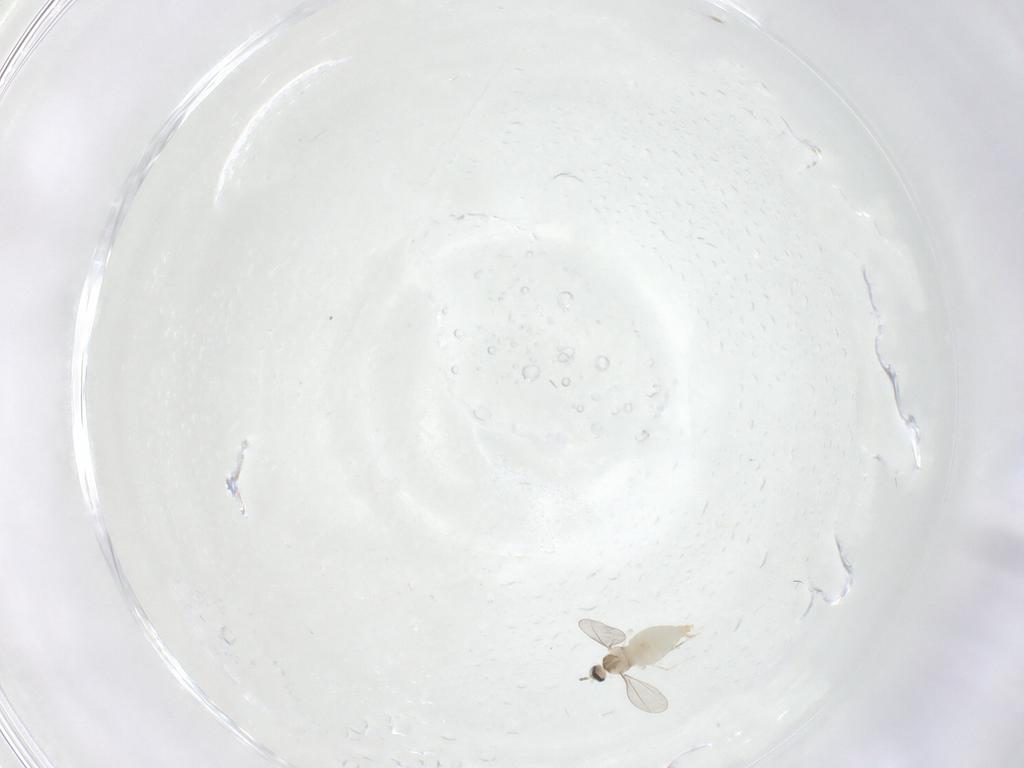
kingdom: Animalia
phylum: Arthropoda
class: Insecta
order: Diptera
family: Cecidomyiidae
